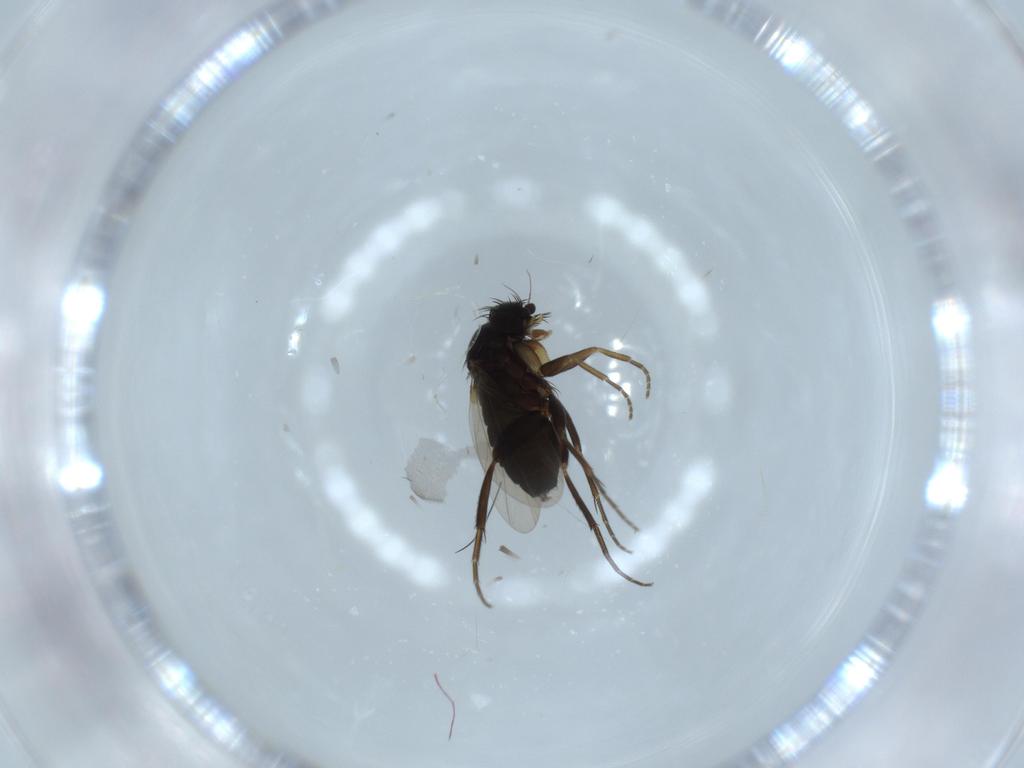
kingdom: Animalia
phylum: Arthropoda
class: Insecta
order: Diptera
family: Phoridae
